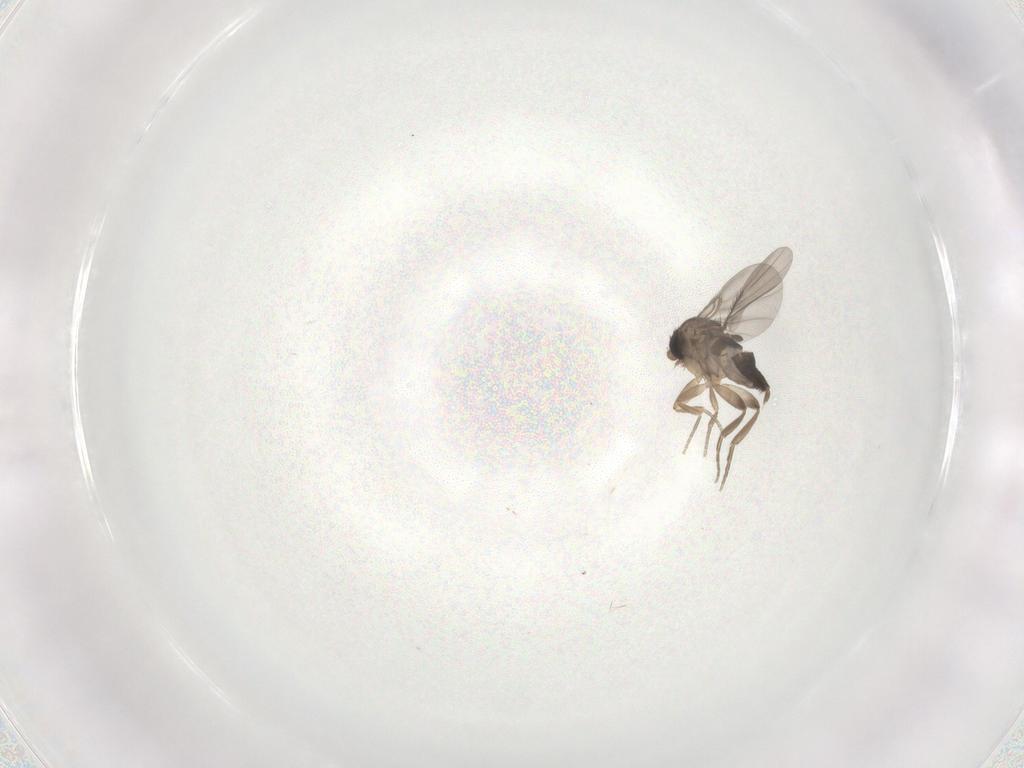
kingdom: Animalia
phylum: Arthropoda
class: Insecta
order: Diptera
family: Phoridae
